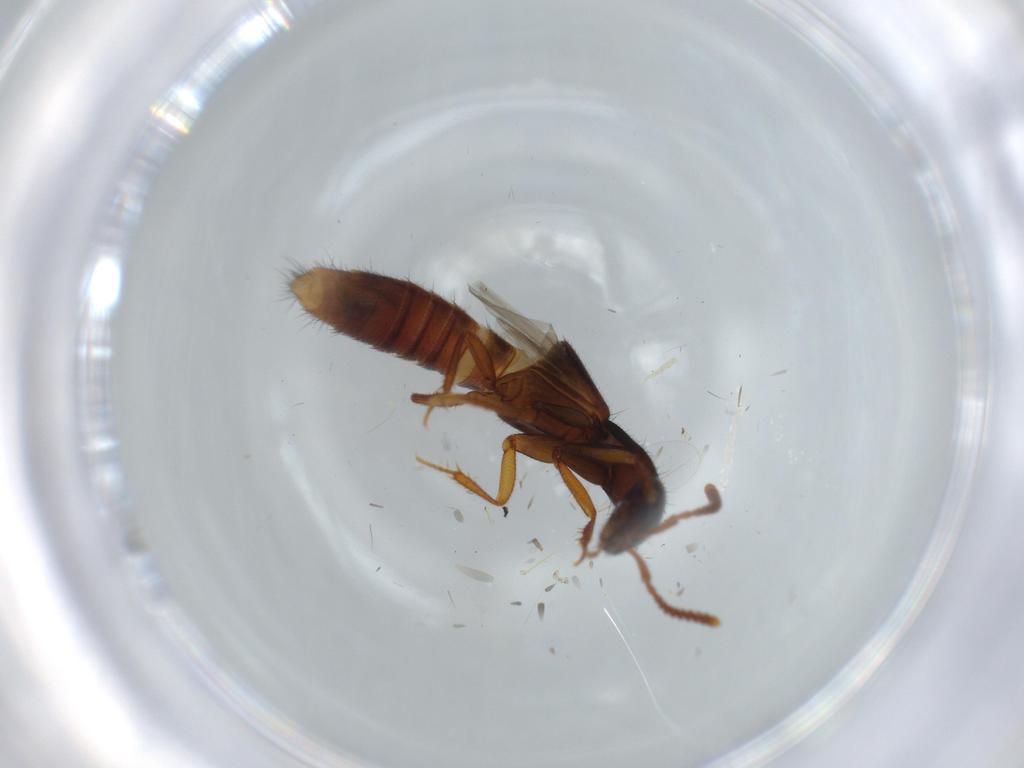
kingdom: Animalia
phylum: Arthropoda
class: Insecta
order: Coleoptera
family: Staphylinidae
